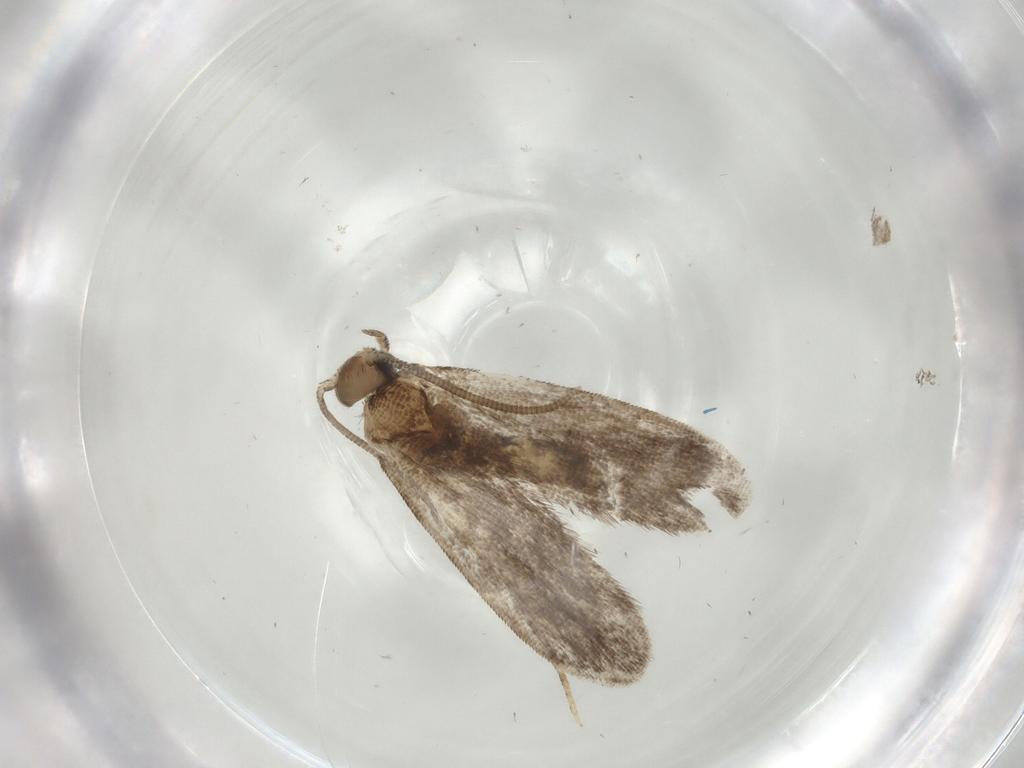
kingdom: Animalia
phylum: Arthropoda
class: Insecta
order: Lepidoptera
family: Dryadaulidae
